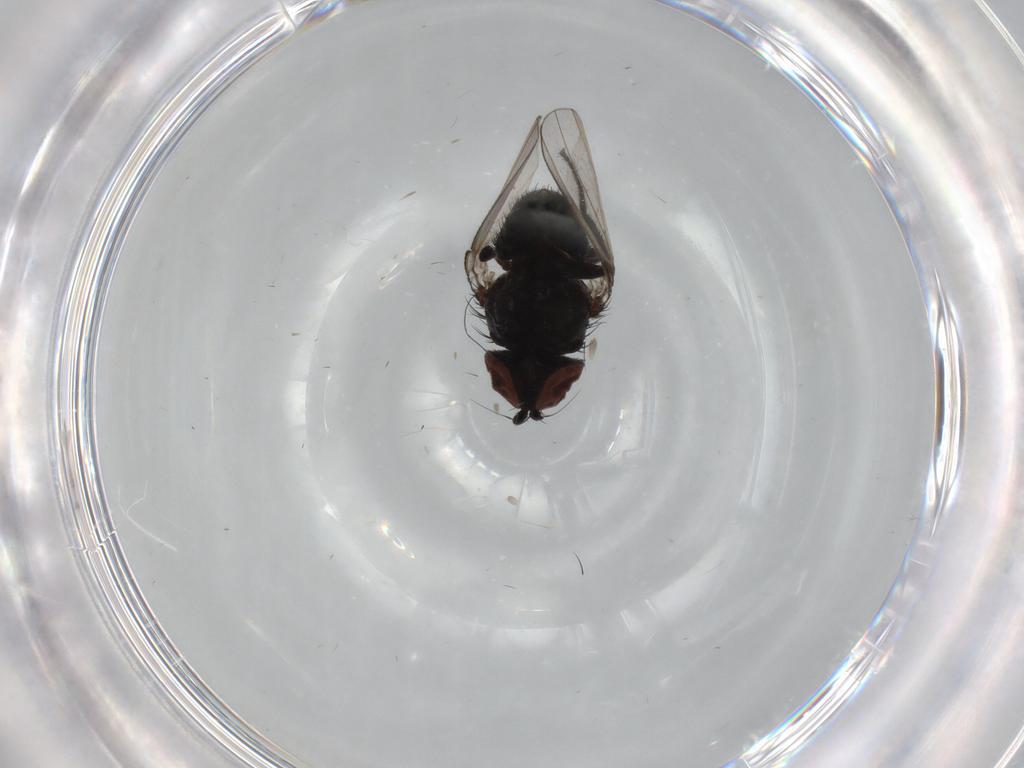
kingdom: Animalia
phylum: Arthropoda
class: Insecta
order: Diptera
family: Milichiidae
